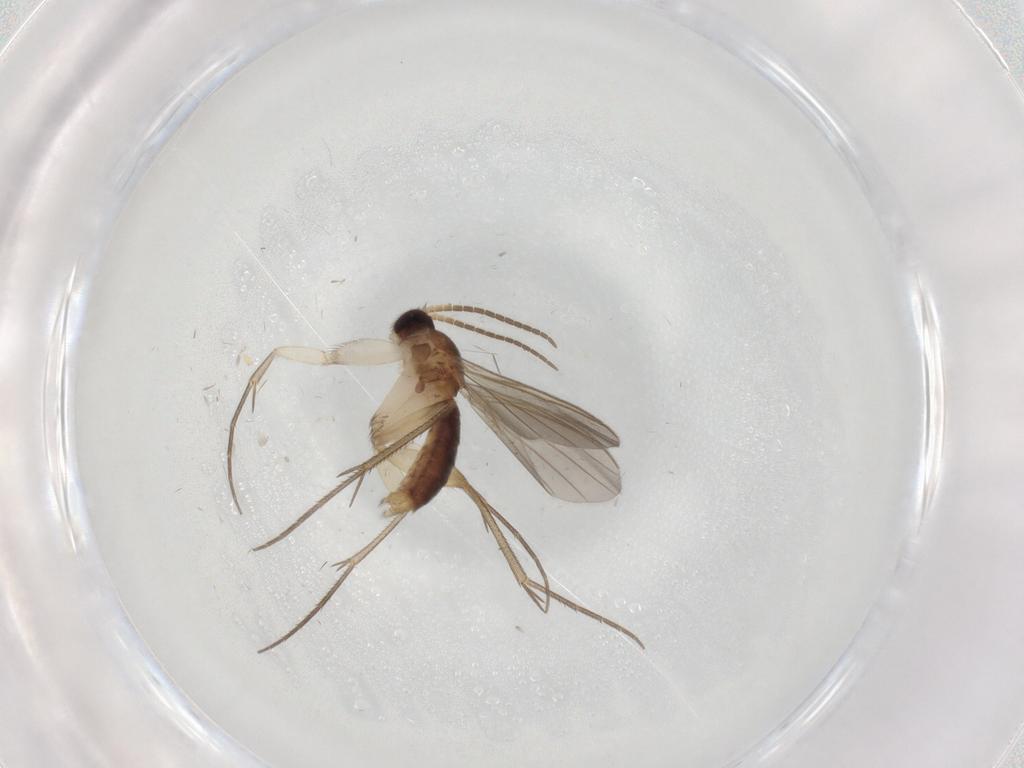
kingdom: Animalia
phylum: Arthropoda
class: Insecta
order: Diptera
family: Mycetophilidae
